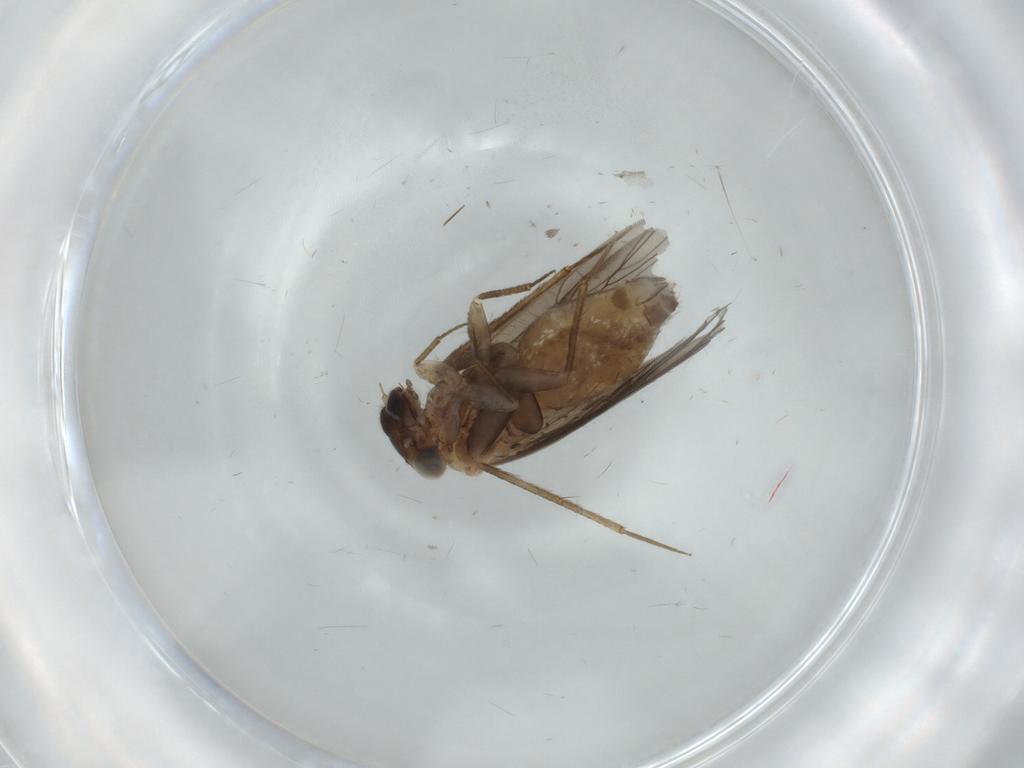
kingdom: Animalia
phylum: Arthropoda
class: Insecta
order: Psocodea
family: Lepidopsocidae
